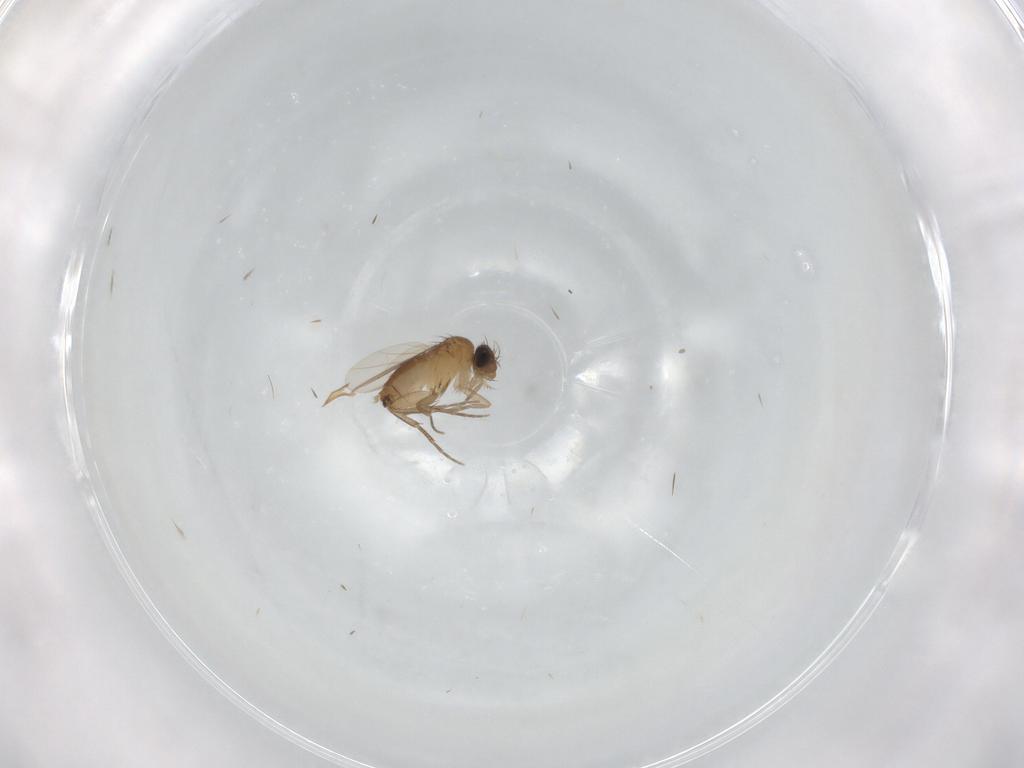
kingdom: Animalia
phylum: Arthropoda
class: Insecta
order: Diptera
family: Phoridae
